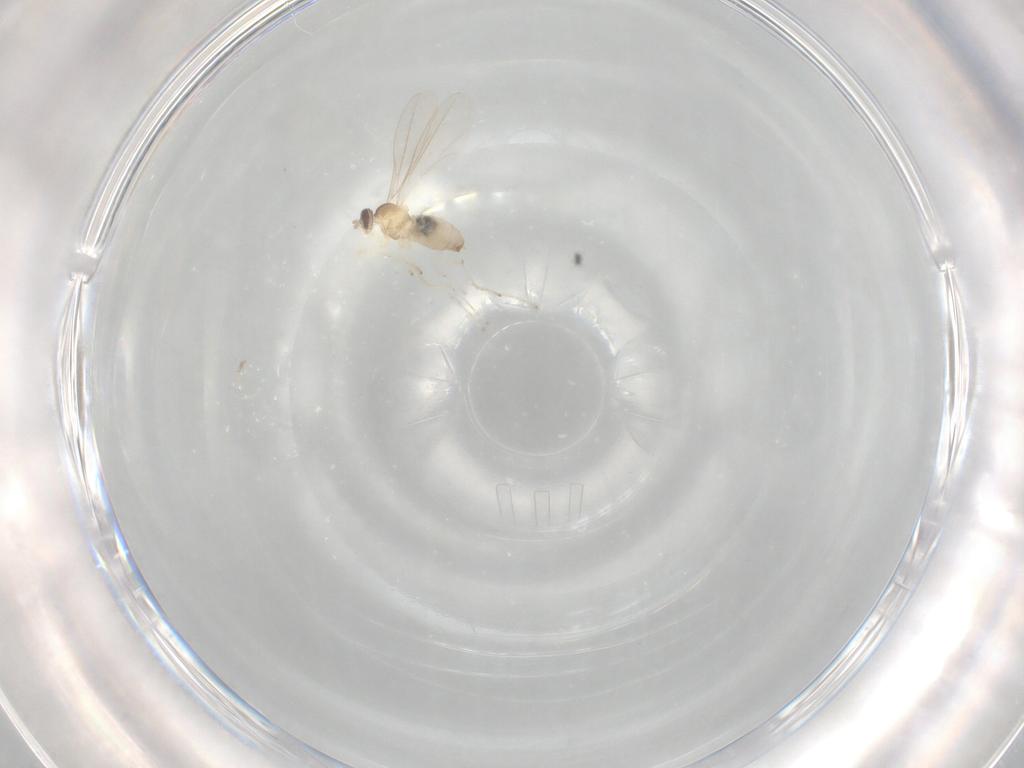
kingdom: Animalia
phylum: Arthropoda
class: Insecta
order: Diptera
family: Cecidomyiidae
